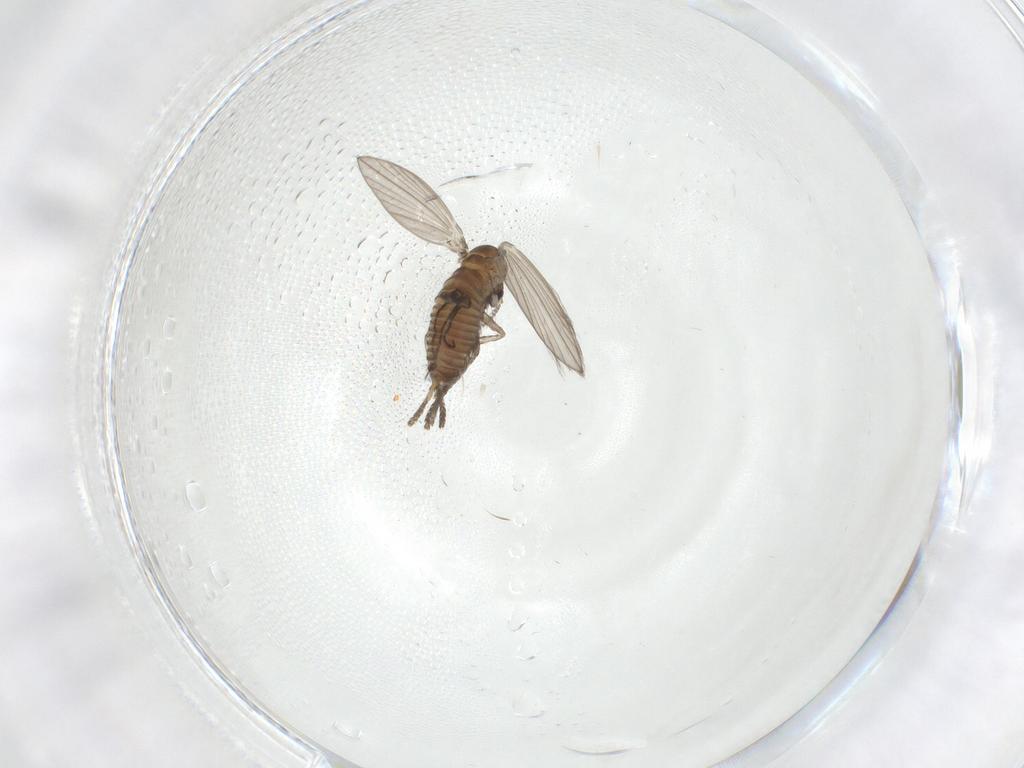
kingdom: Animalia
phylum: Arthropoda
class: Insecta
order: Diptera
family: Psychodidae
